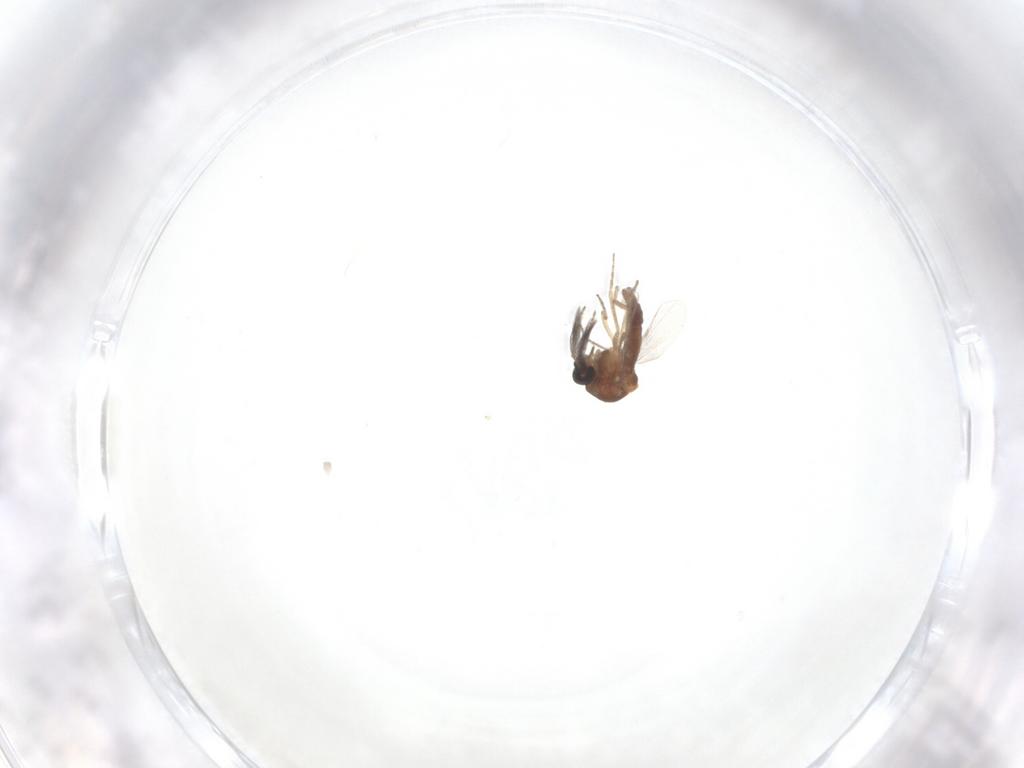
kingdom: Animalia
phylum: Arthropoda
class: Insecta
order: Diptera
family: Ceratopogonidae
